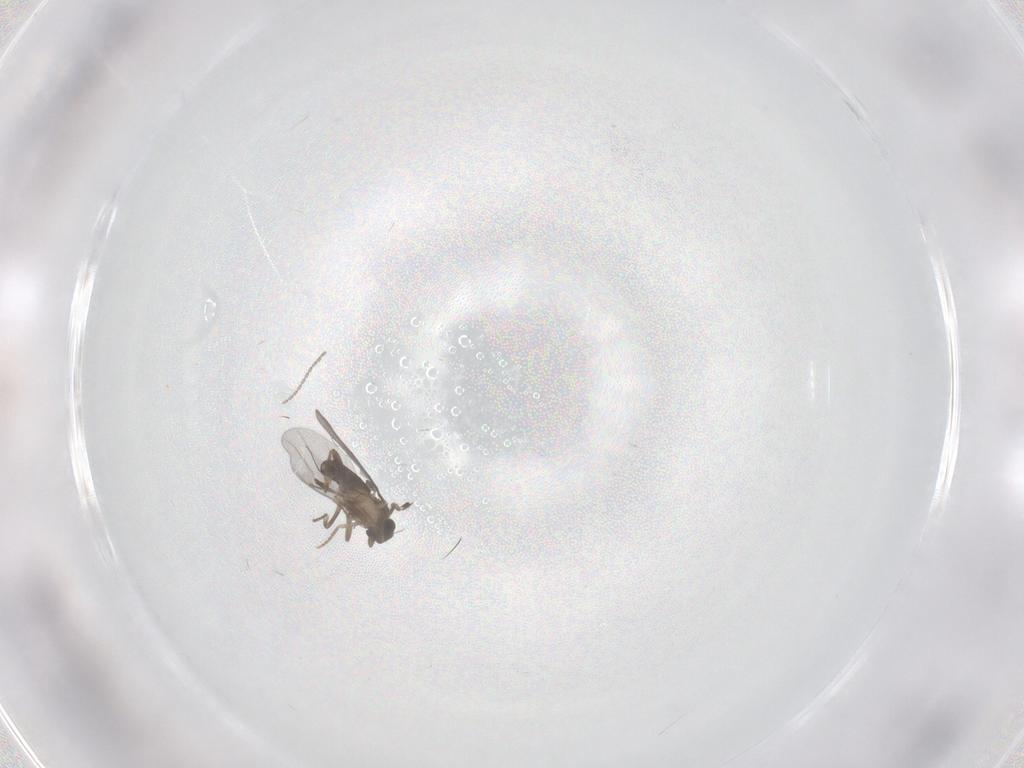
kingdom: Animalia
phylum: Arthropoda
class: Insecta
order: Diptera
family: Cecidomyiidae
